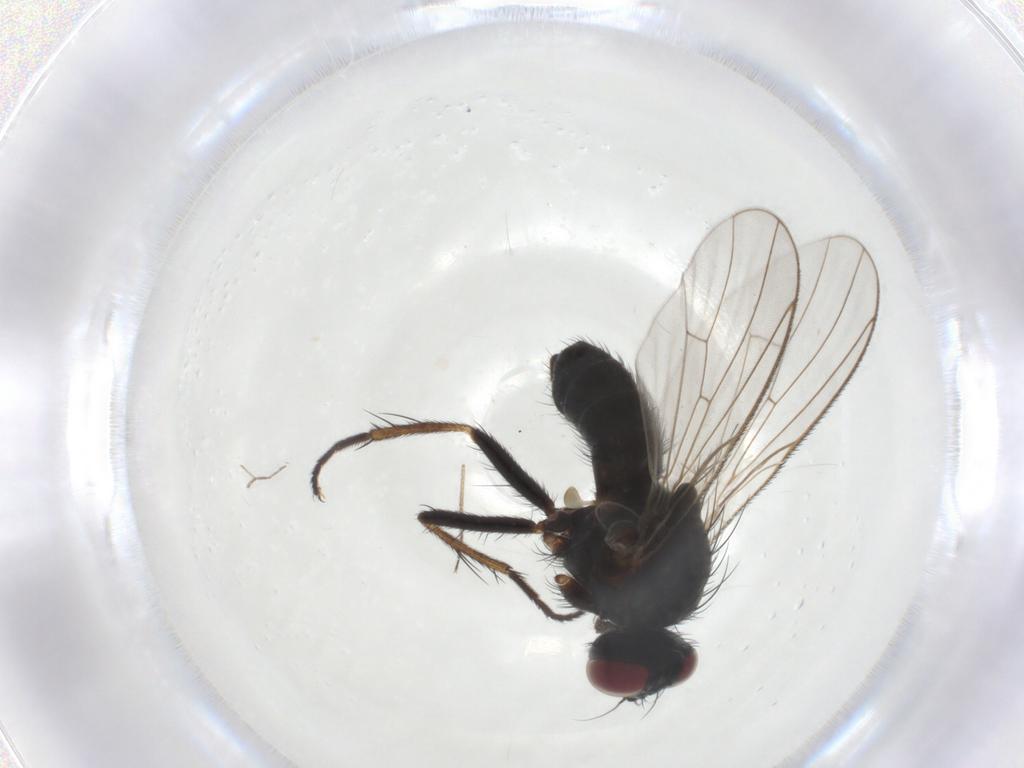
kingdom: Animalia
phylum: Arthropoda
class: Insecta
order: Diptera
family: Muscidae
